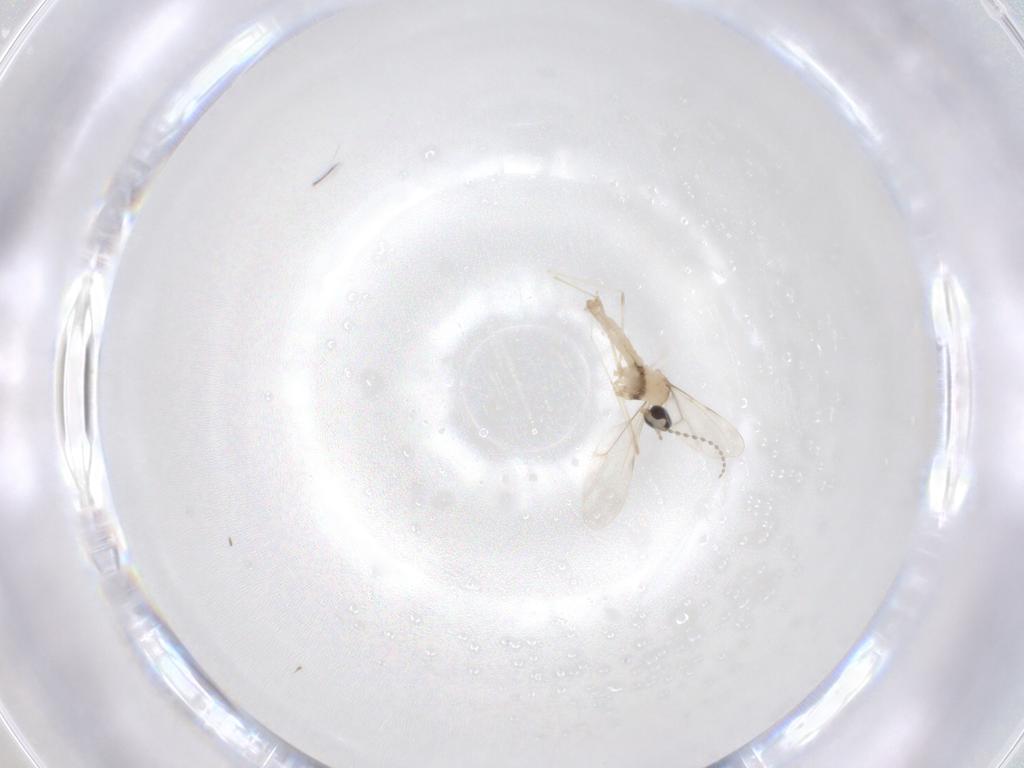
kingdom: Animalia
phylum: Arthropoda
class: Insecta
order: Diptera
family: Cecidomyiidae
